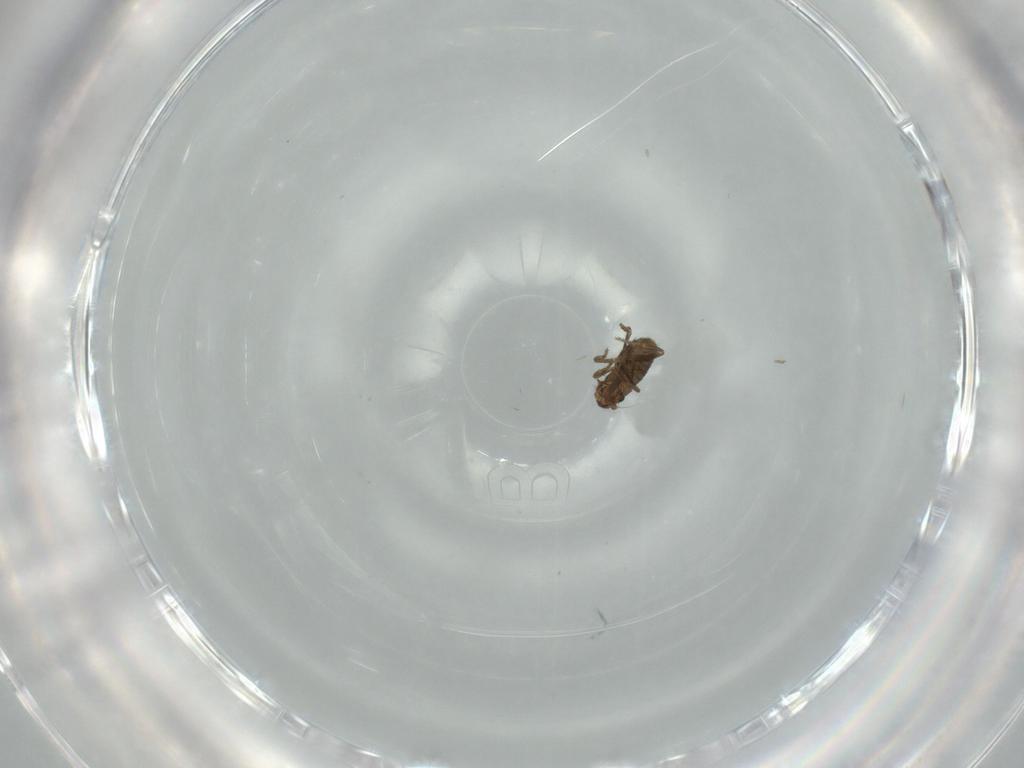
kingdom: Animalia
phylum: Arthropoda
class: Insecta
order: Diptera
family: Phoridae
